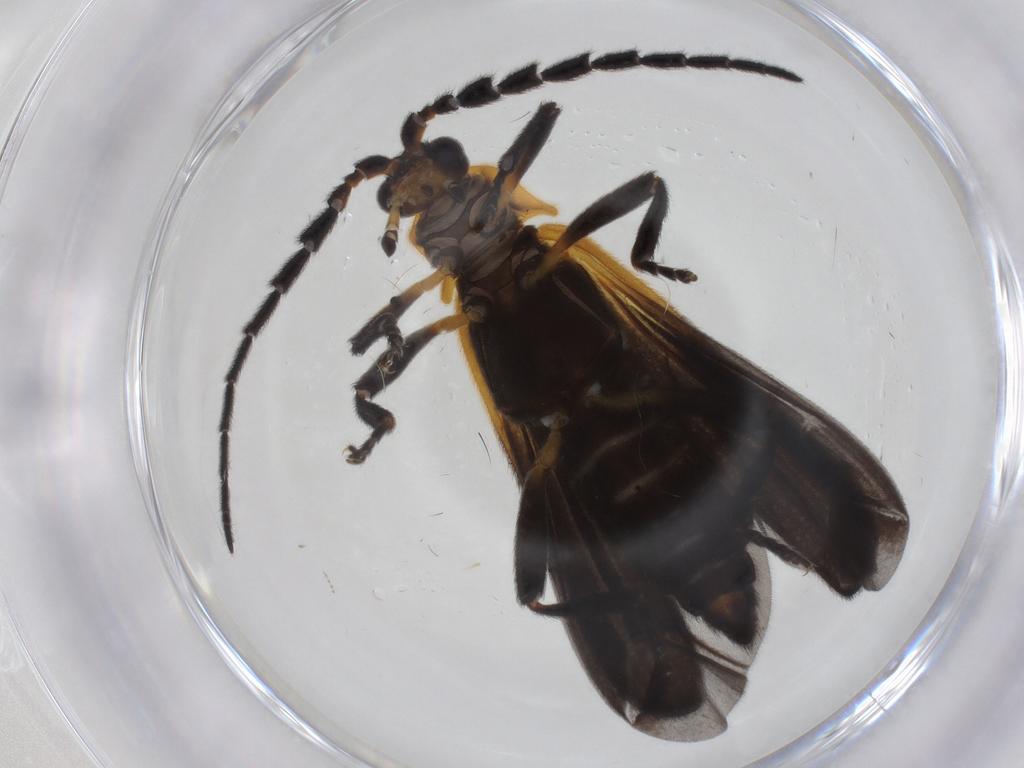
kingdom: Animalia
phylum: Arthropoda
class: Insecta
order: Coleoptera
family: Lycidae
